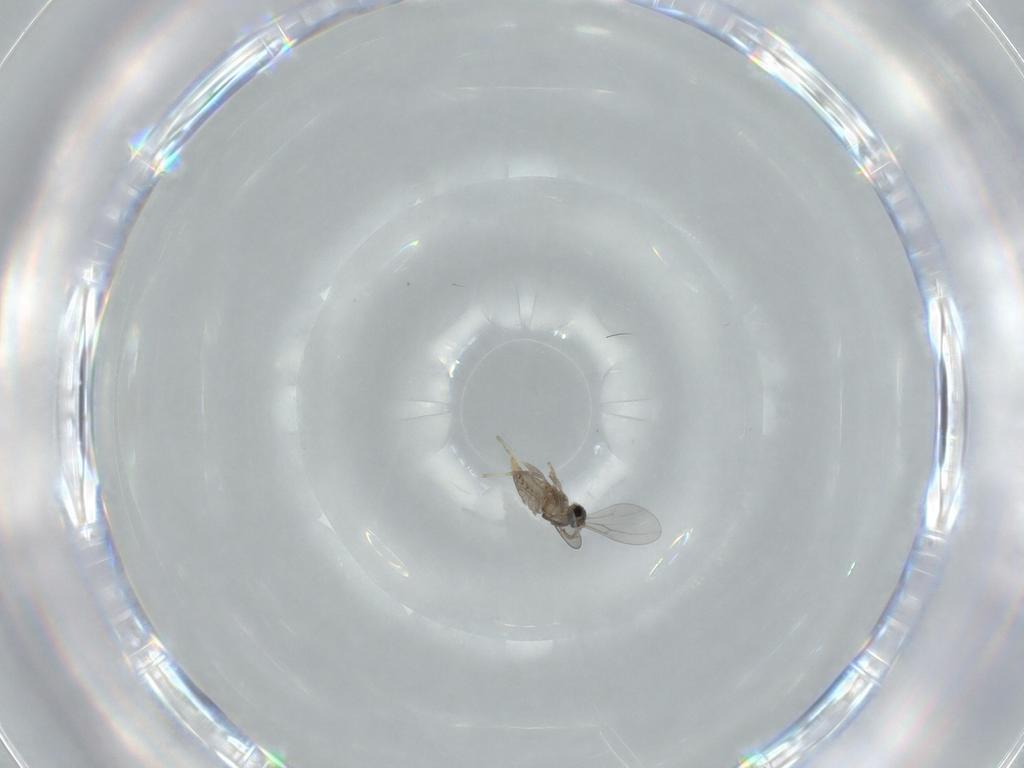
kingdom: Animalia
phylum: Arthropoda
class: Insecta
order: Diptera
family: Cecidomyiidae
